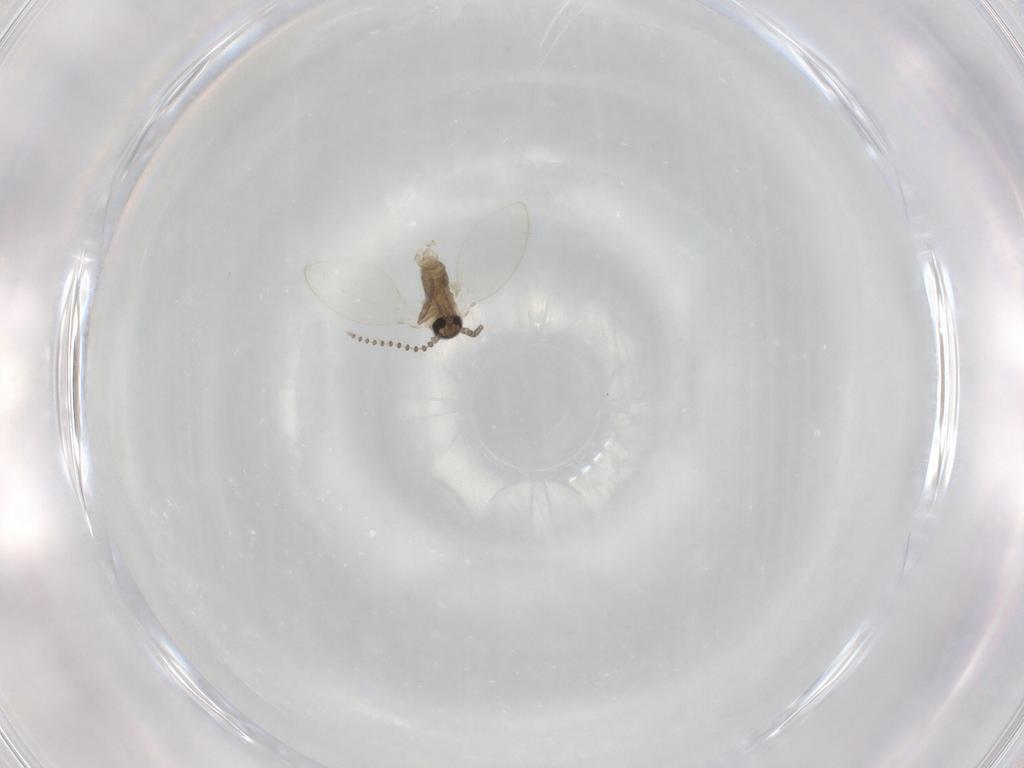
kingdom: Animalia
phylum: Arthropoda
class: Insecta
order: Diptera
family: Psychodidae
